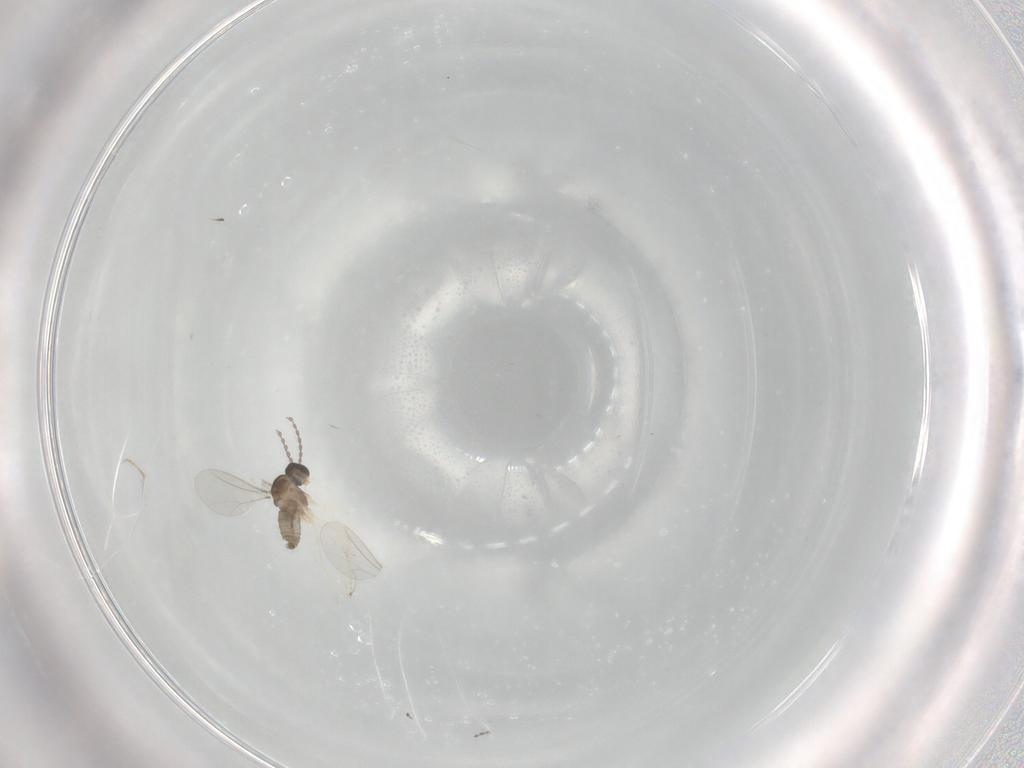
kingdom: Animalia
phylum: Arthropoda
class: Insecta
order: Diptera
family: Cecidomyiidae
